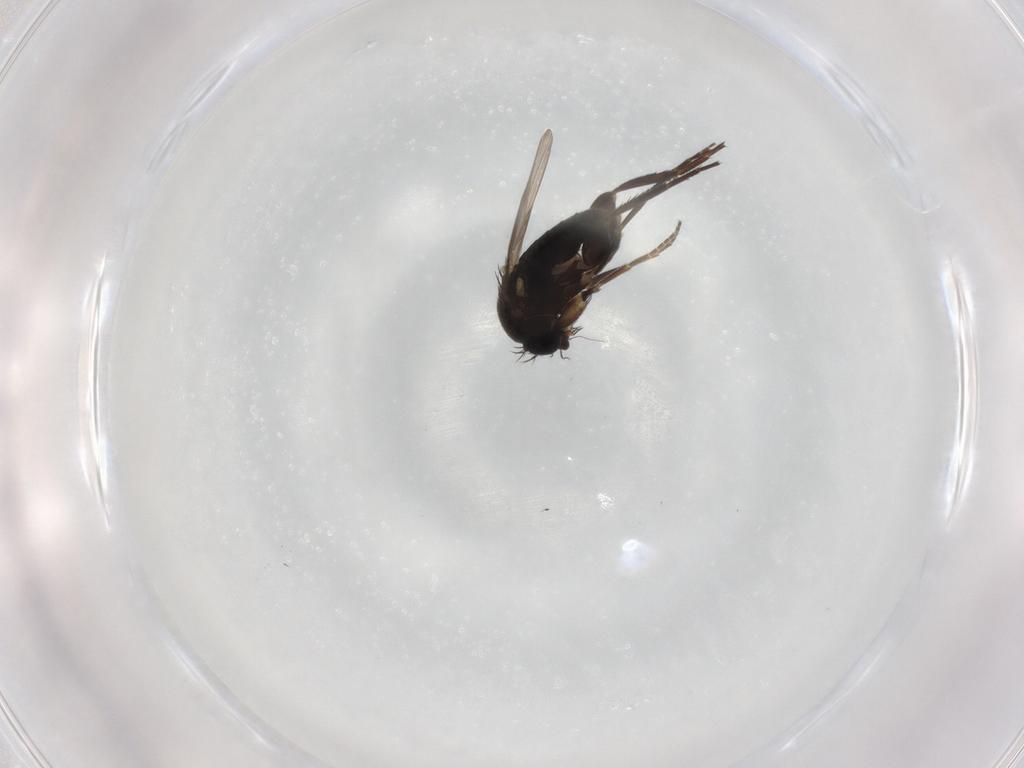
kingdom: Animalia
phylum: Arthropoda
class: Insecta
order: Diptera
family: Phoridae
